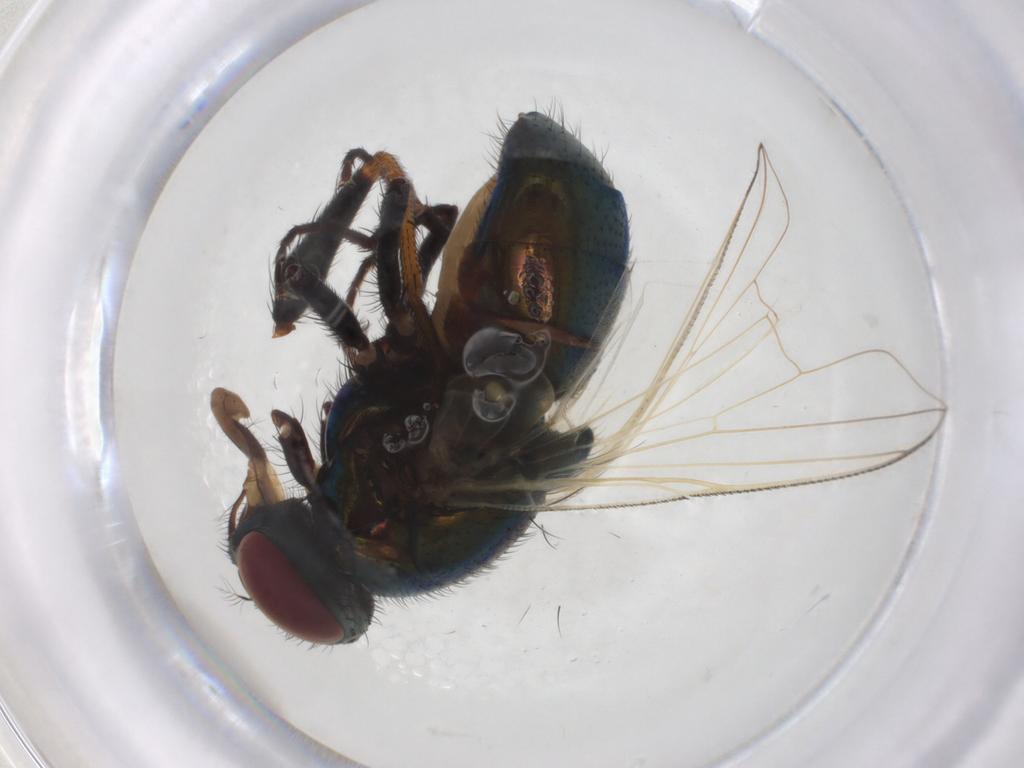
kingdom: Animalia
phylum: Arthropoda
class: Insecta
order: Diptera
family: Muscidae
